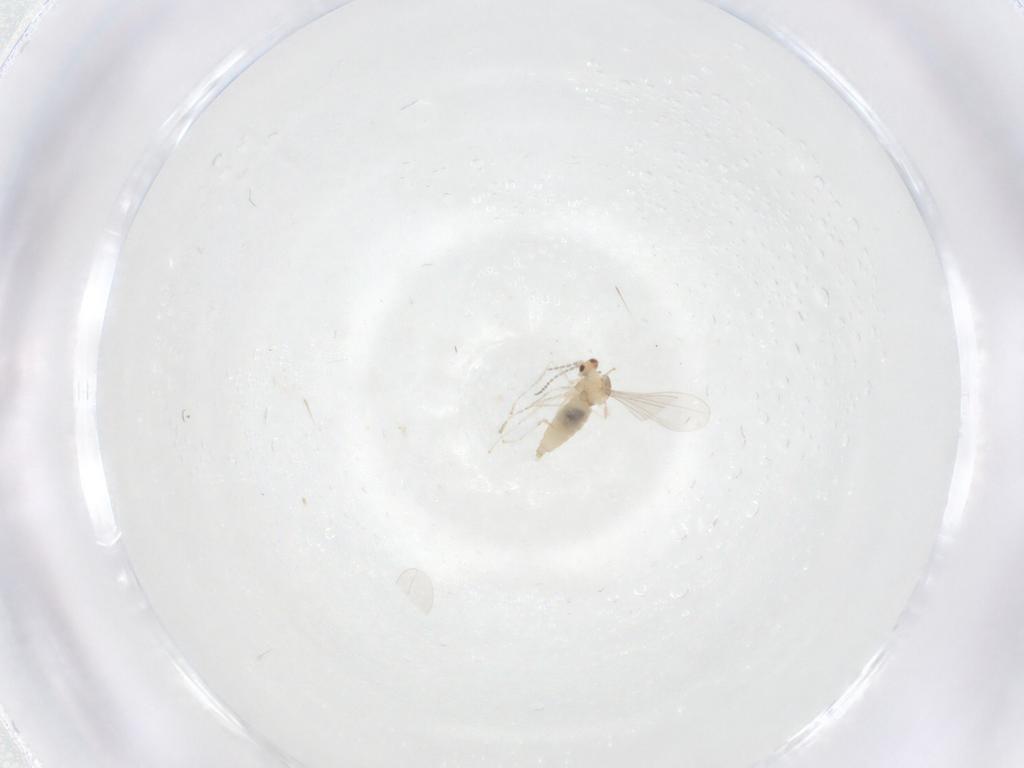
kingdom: Animalia
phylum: Arthropoda
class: Insecta
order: Diptera
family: Cecidomyiidae
